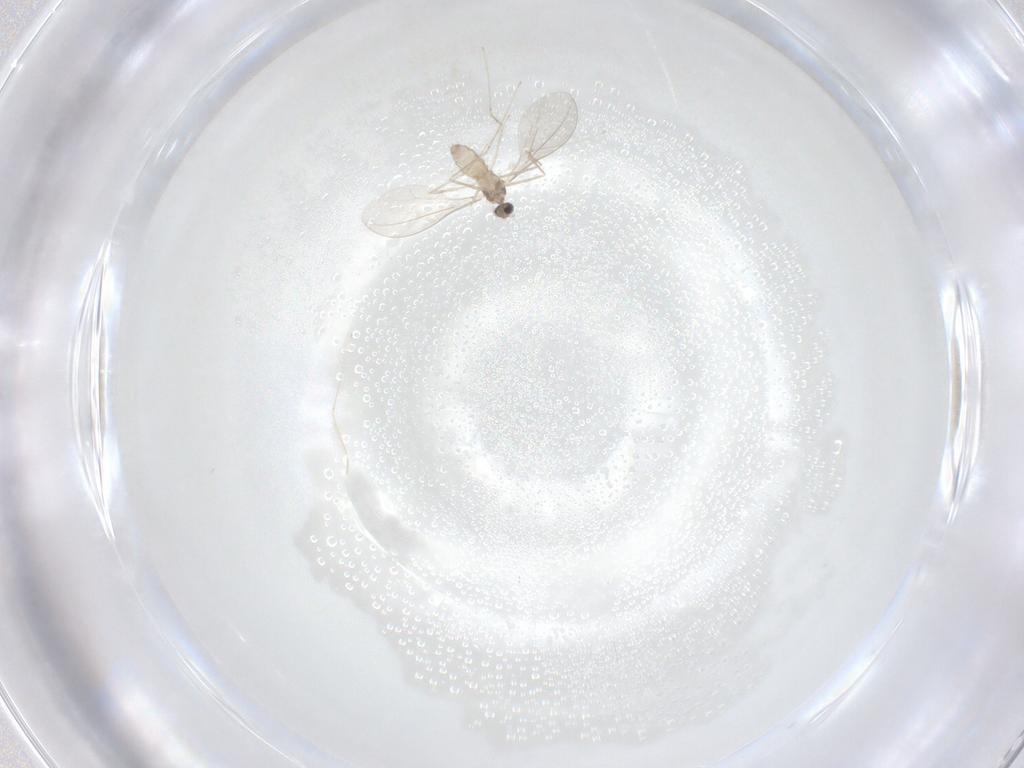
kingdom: Animalia
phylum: Arthropoda
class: Insecta
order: Diptera
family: Cecidomyiidae
